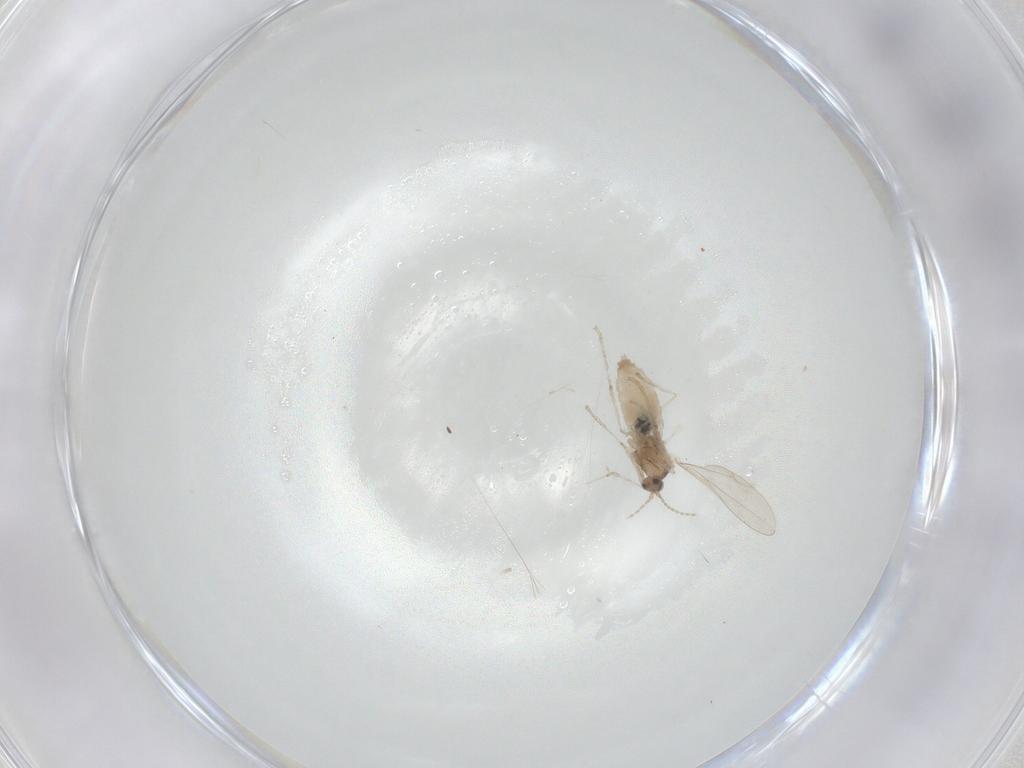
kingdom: Animalia
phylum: Arthropoda
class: Insecta
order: Diptera
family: Cecidomyiidae
